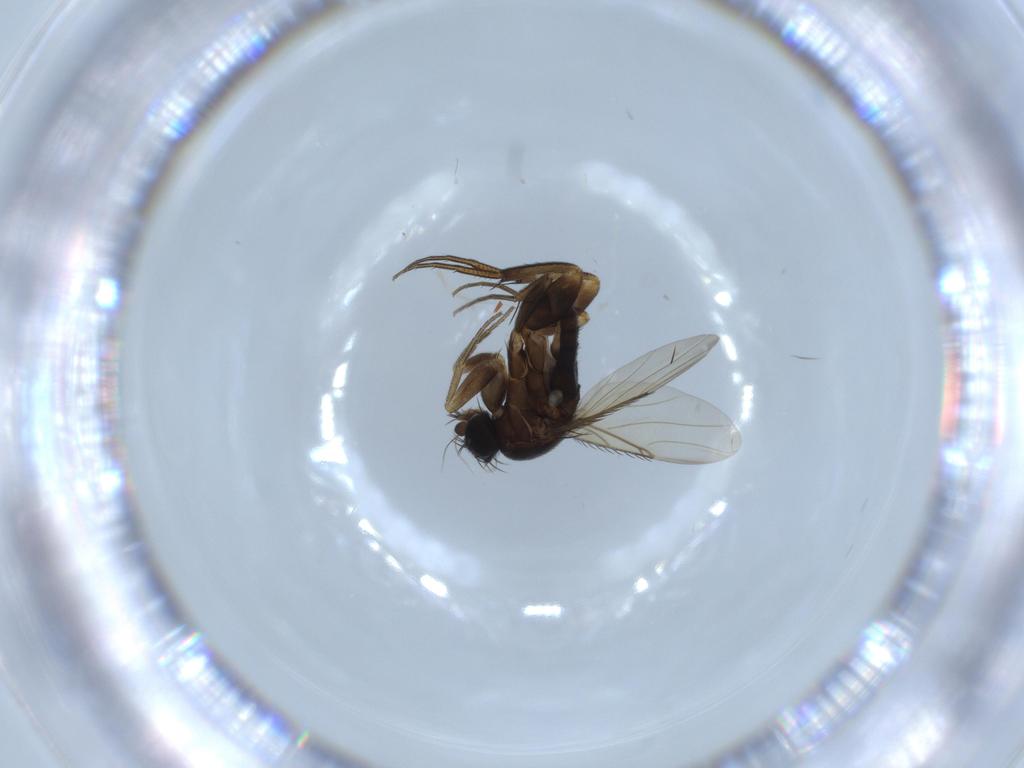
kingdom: Animalia
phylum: Arthropoda
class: Insecta
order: Diptera
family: Phoridae
